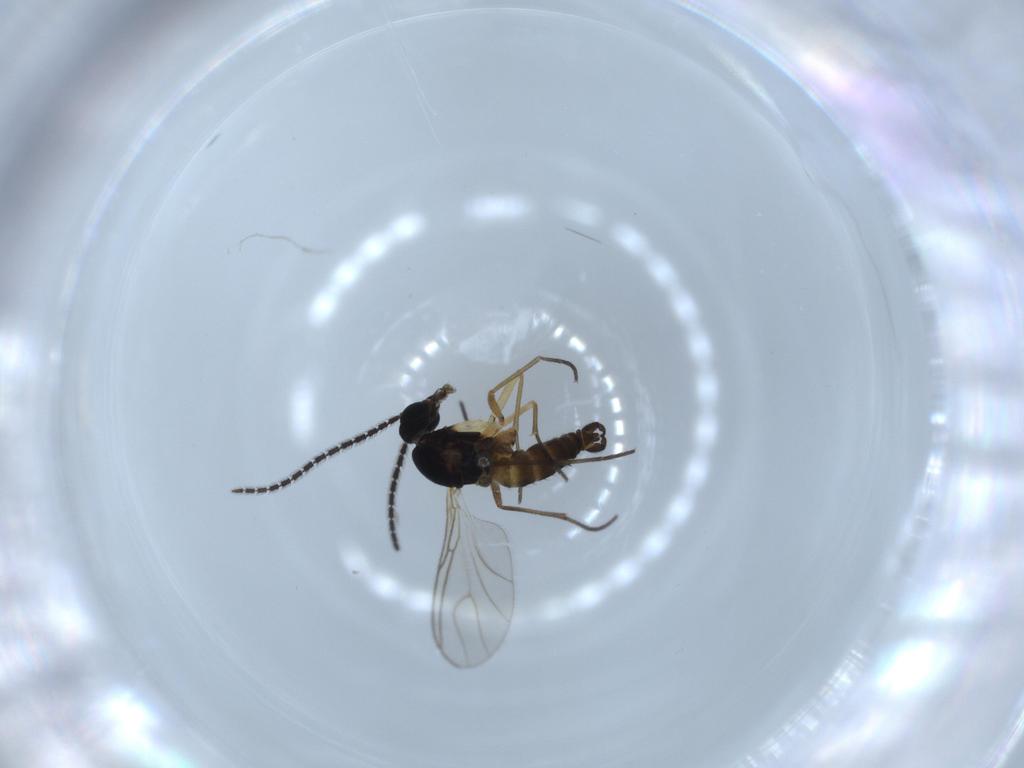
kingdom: Animalia
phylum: Arthropoda
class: Insecta
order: Diptera
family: Sciaridae
